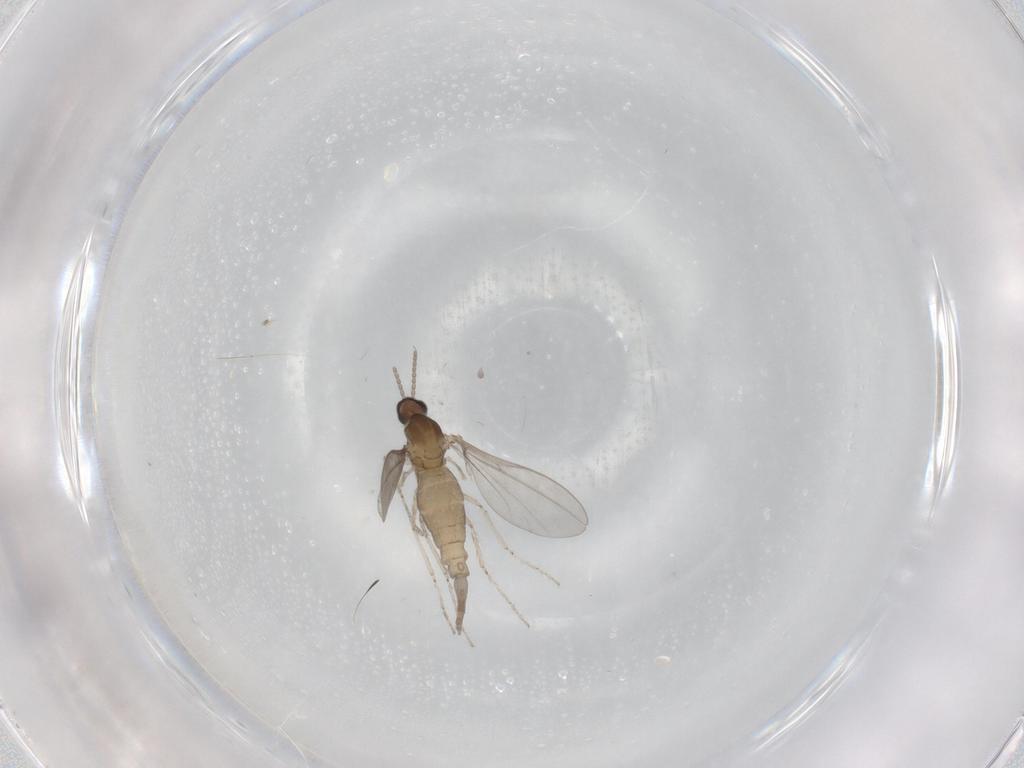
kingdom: Animalia
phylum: Arthropoda
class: Insecta
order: Diptera
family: Cecidomyiidae
